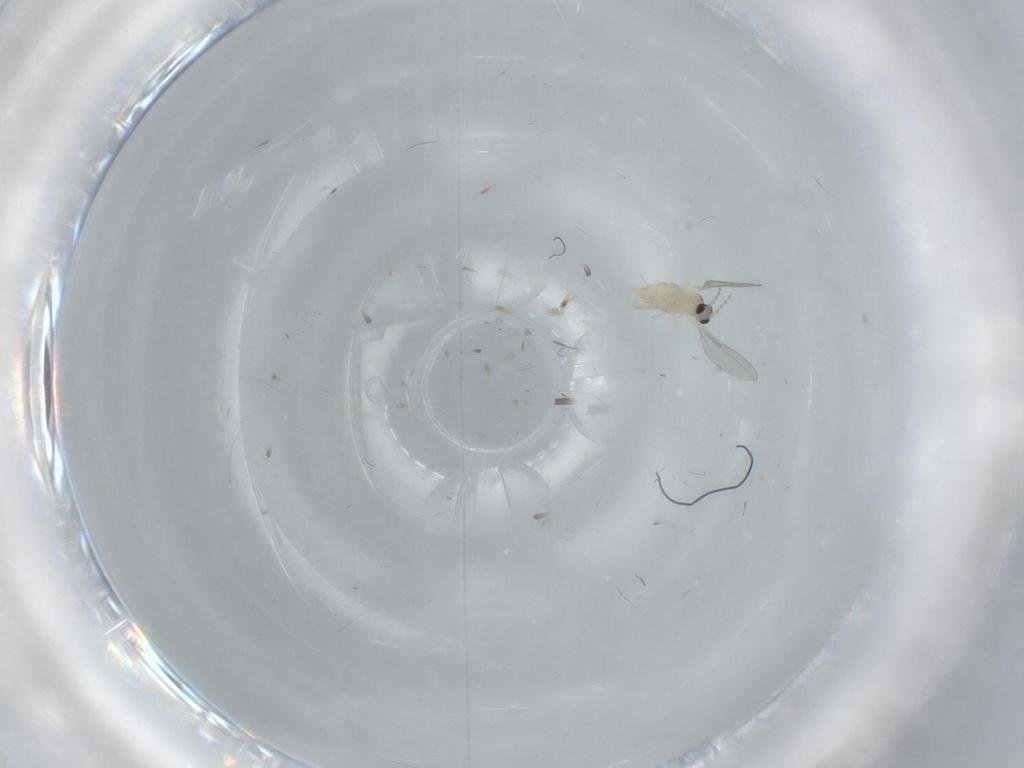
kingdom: Animalia
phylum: Arthropoda
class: Insecta
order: Diptera
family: Cecidomyiidae
